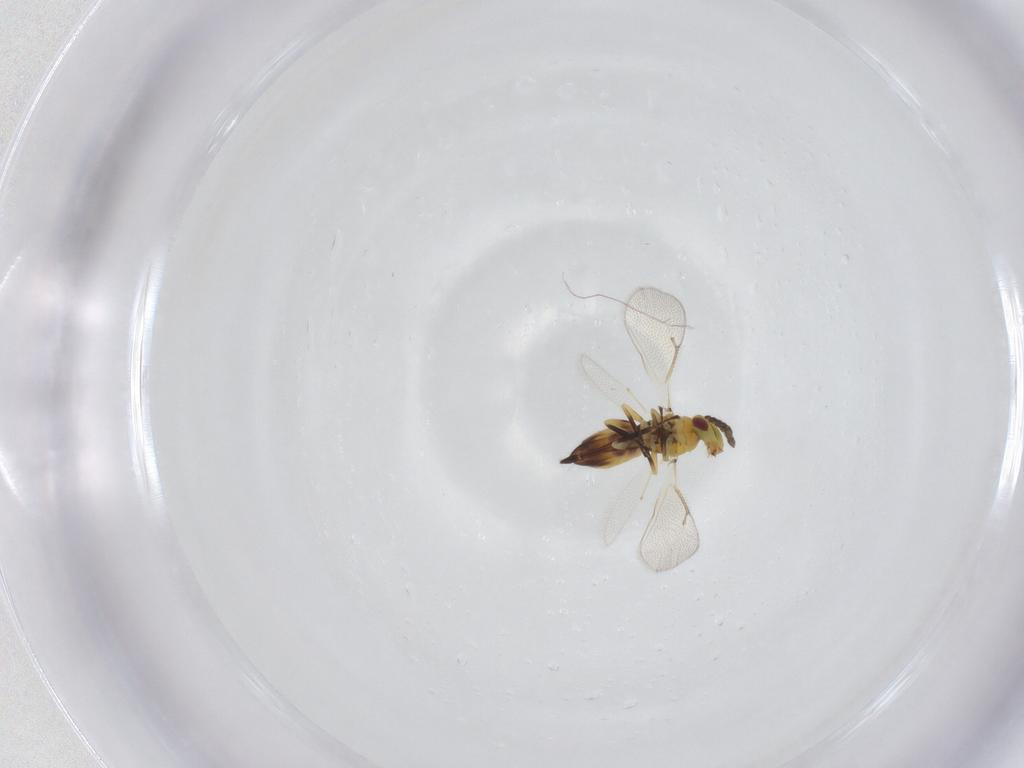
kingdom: Animalia
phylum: Arthropoda
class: Insecta
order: Hymenoptera
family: Eulophidae
